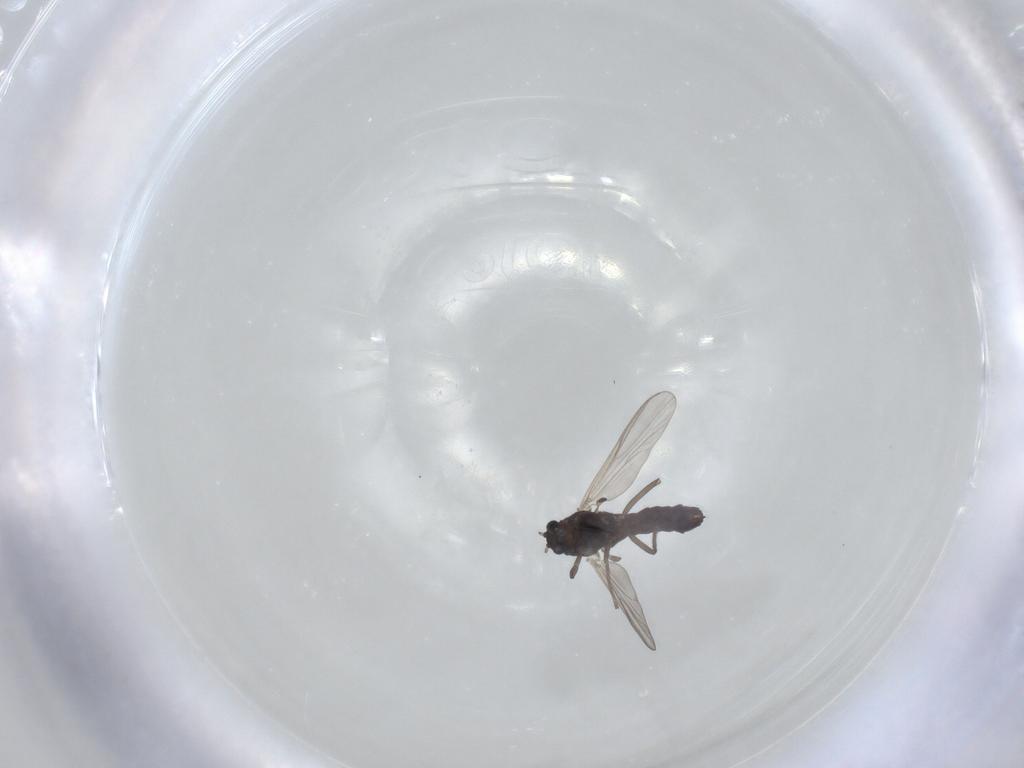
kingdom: Animalia
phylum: Arthropoda
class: Insecta
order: Diptera
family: Chironomidae
